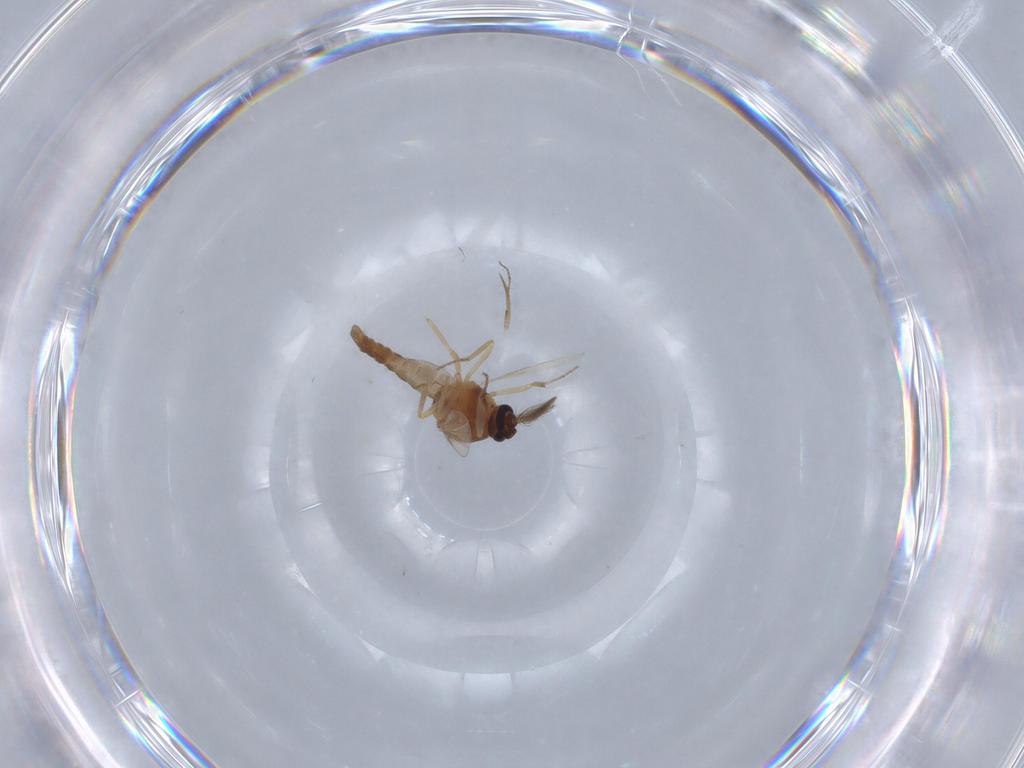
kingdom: Animalia
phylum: Arthropoda
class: Insecta
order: Diptera
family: Ceratopogonidae
